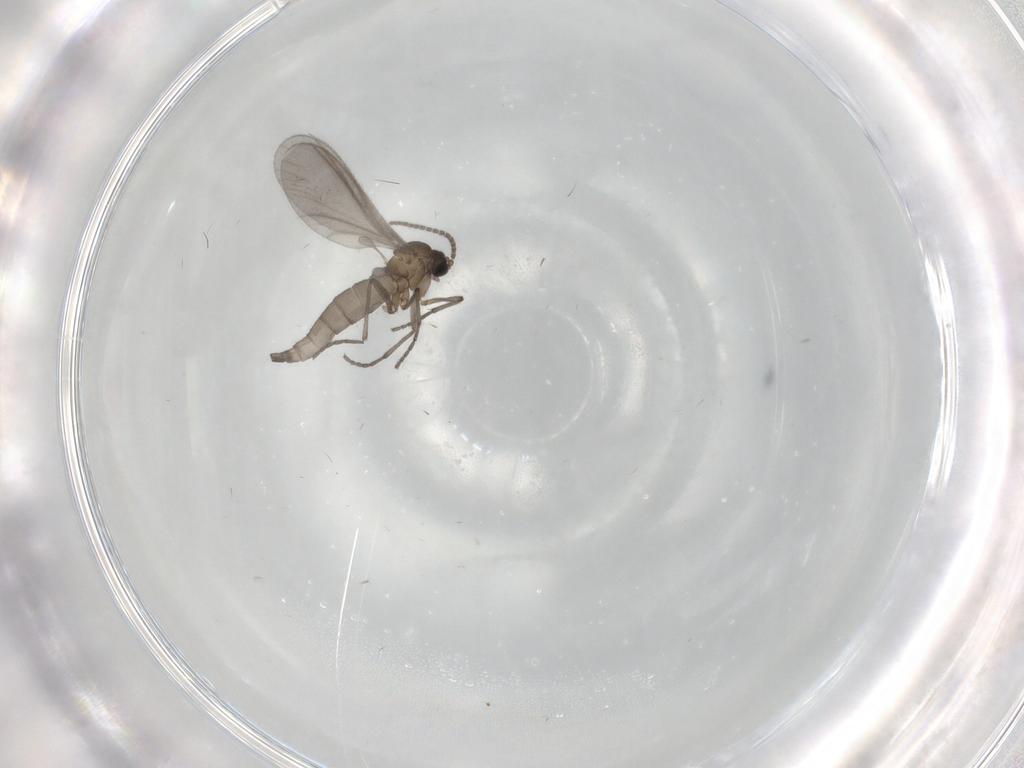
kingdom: Animalia
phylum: Arthropoda
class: Insecta
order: Diptera
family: Sciaridae
